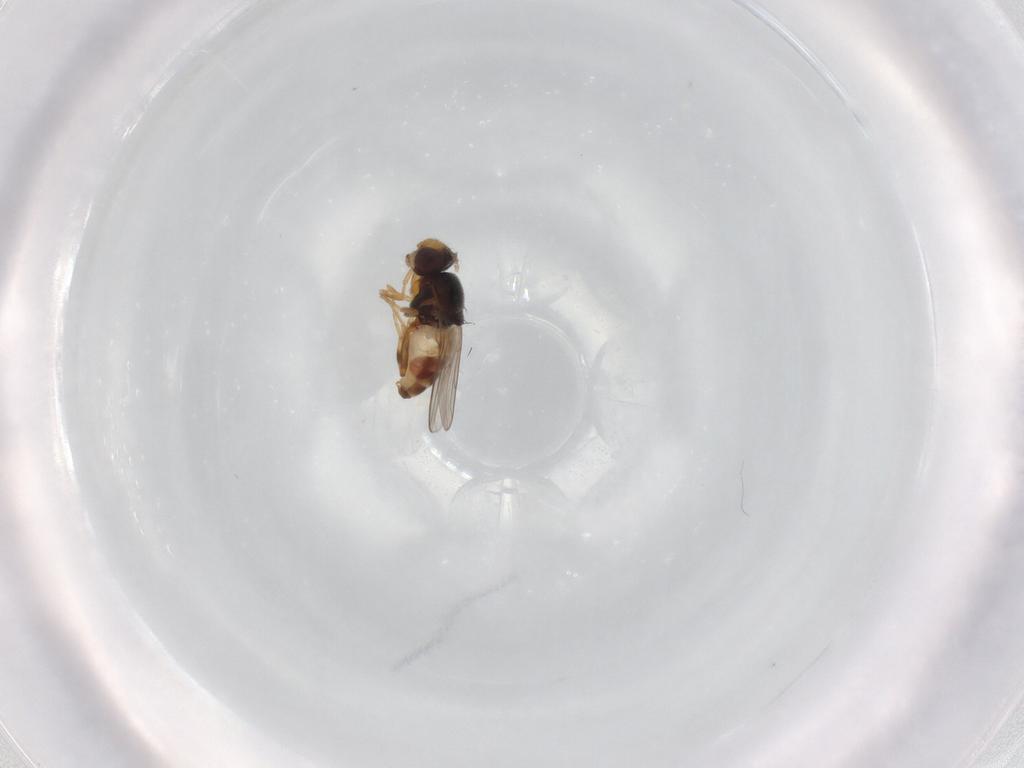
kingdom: Animalia
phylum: Arthropoda
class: Insecta
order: Diptera
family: Chloropidae
